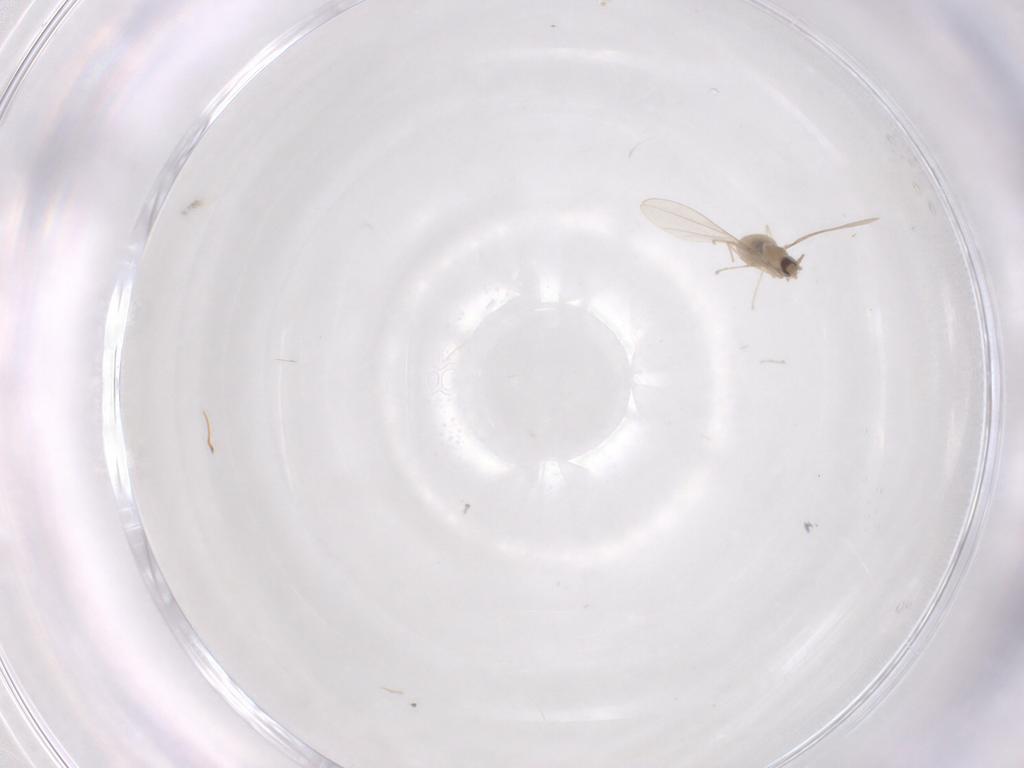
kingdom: Animalia
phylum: Arthropoda
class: Insecta
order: Diptera
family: Cecidomyiidae
